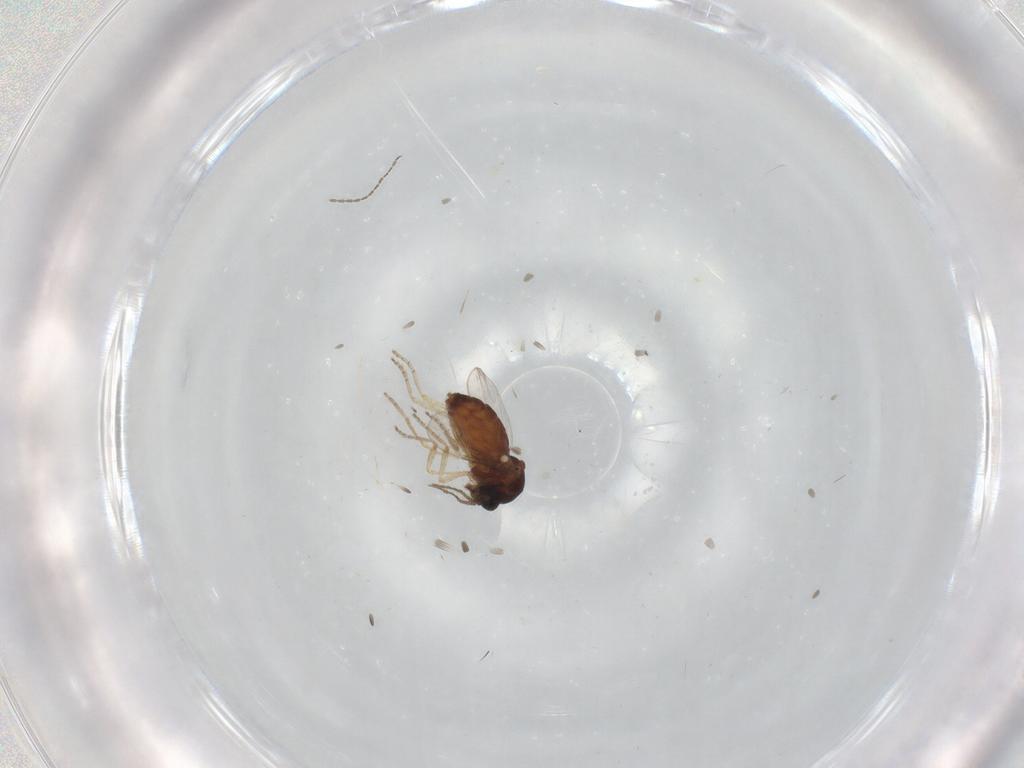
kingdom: Animalia
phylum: Arthropoda
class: Insecta
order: Diptera
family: Ceratopogonidae
